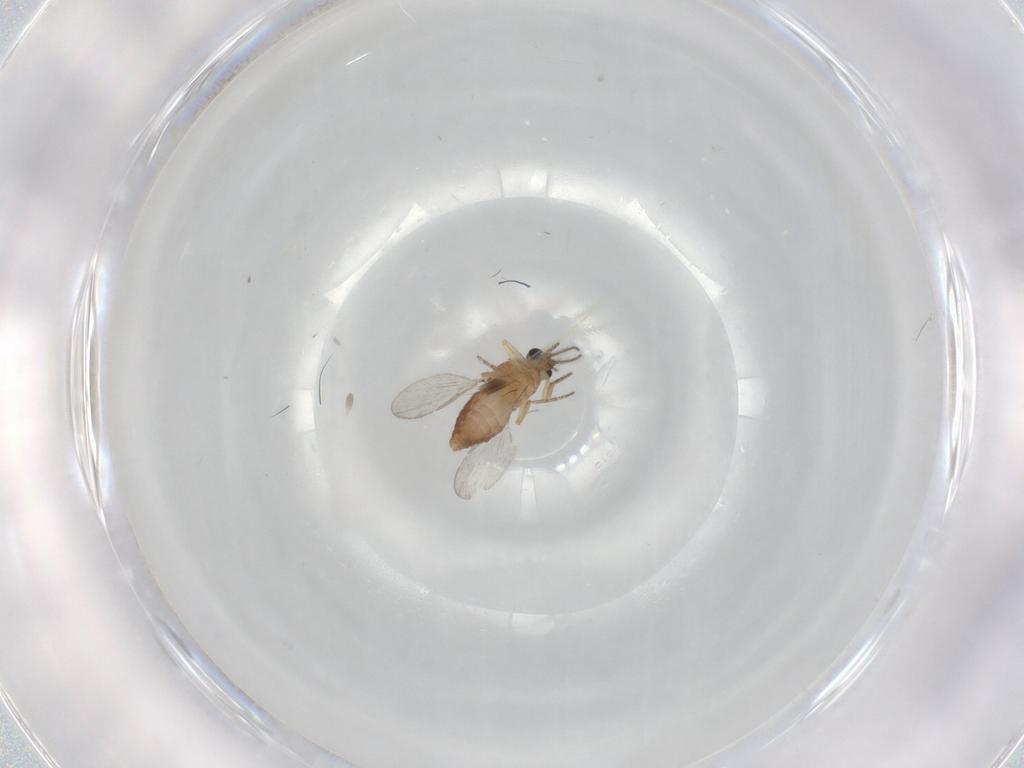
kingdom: Animalia
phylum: Arthropoda
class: Insecta
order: Diptera
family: Ceratopogonidae
